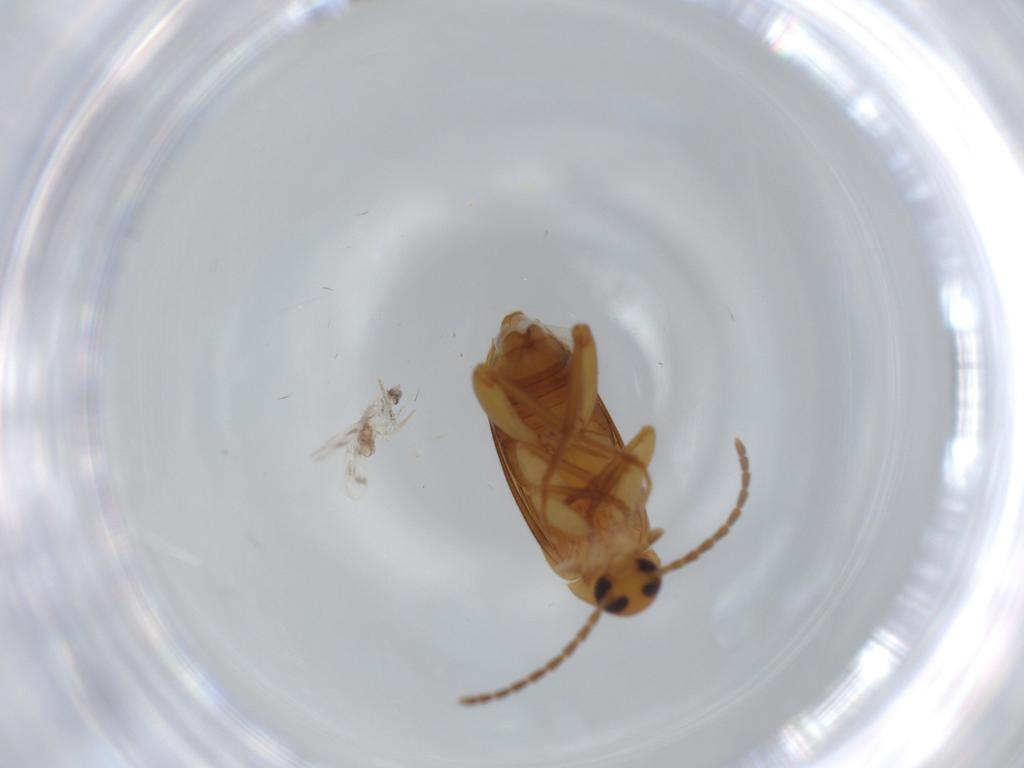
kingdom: Animalia
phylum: Arthropoda
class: Insecta
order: Coleoptera
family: Scraptiidae
